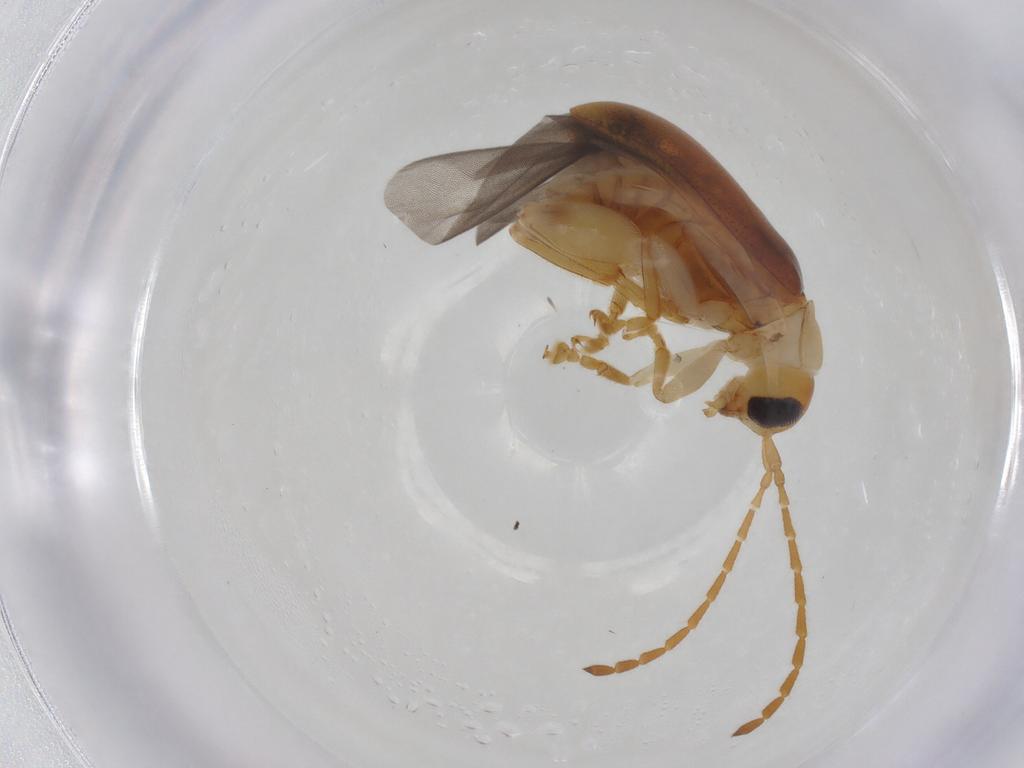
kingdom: Animalia
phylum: Arthropoda
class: Insecta
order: Coleoptera
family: Chrysomelidae
